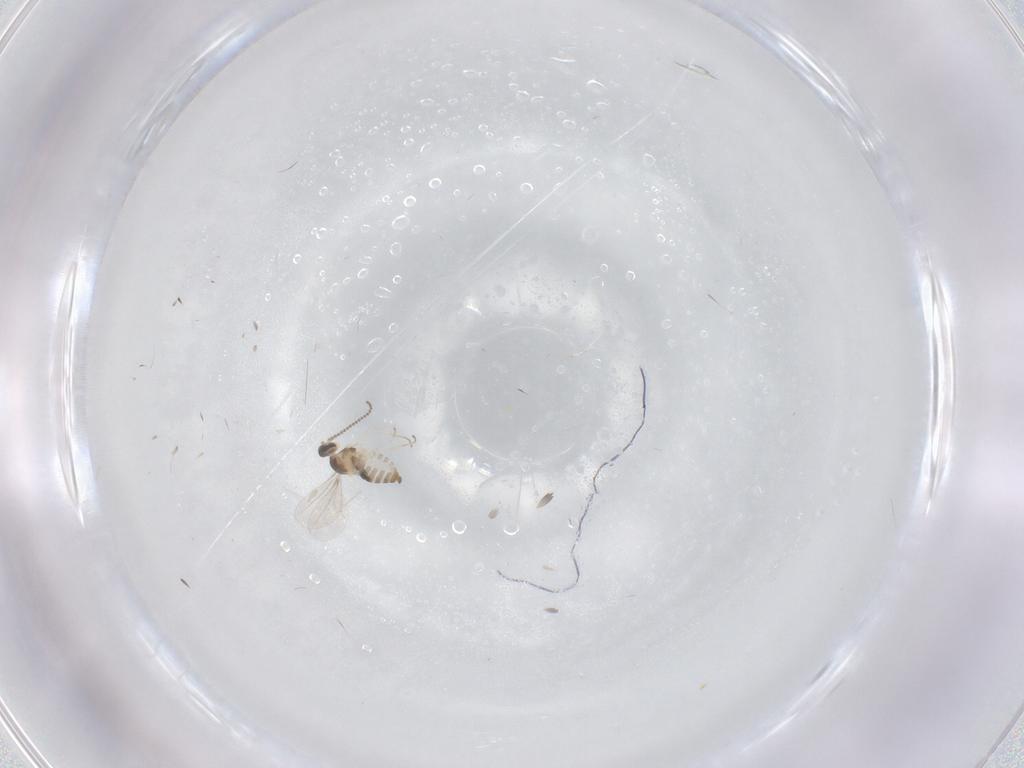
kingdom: Animalia
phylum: Arthropoda
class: Insecta
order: Diptera
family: Cecidomyiidae
